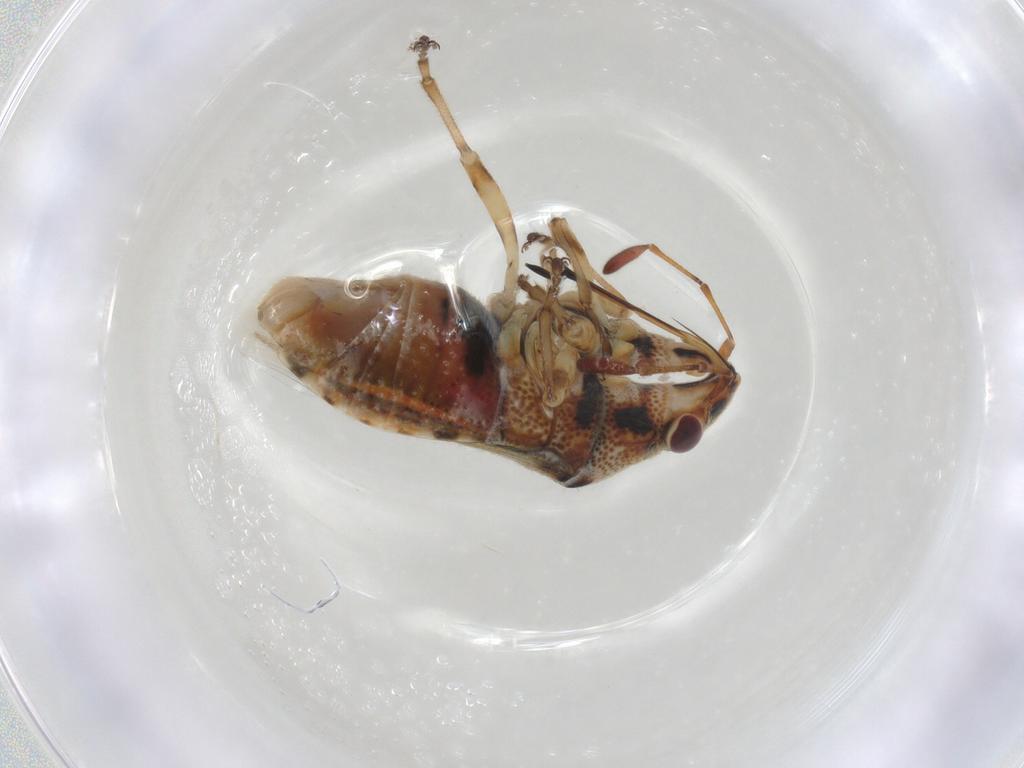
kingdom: Animalia
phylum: Arthropoda
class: Insecta
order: Hemiptera
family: Lygaeidae
